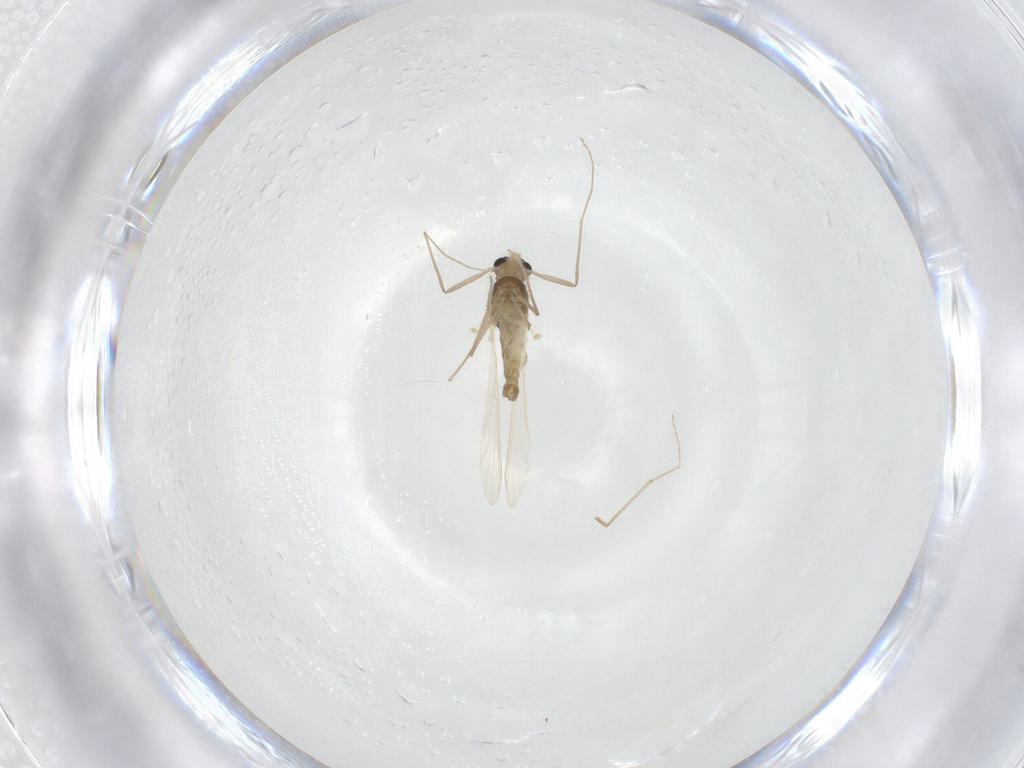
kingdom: Animalia
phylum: Arthropoda
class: Insecta
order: Diptera
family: Chironomidae
